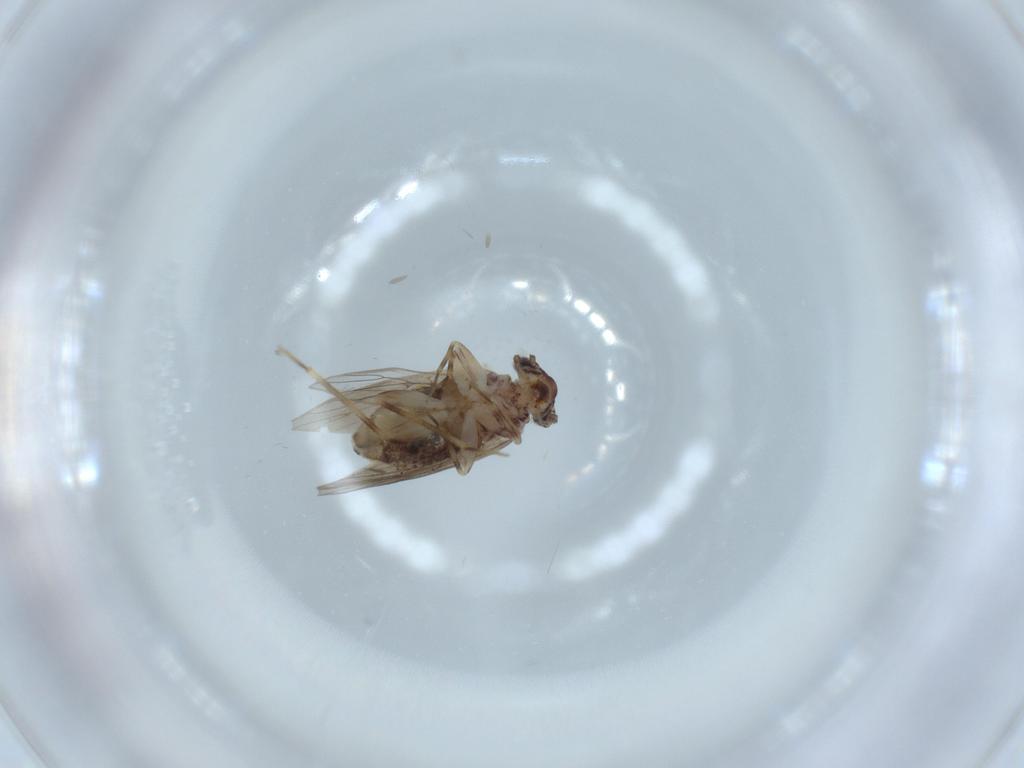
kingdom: Animalia
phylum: Arthropoda
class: Insecta
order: Psocodea
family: Lepidopsocidae
